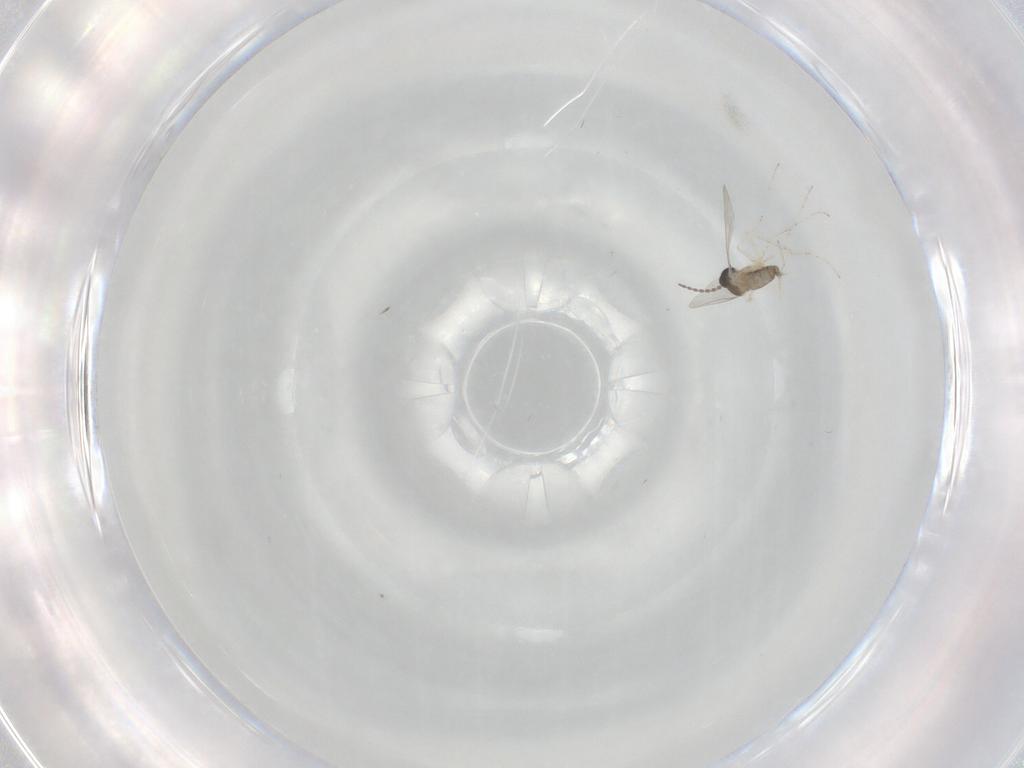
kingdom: Animalia
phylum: Arthropoda
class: Insecta
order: Diptera
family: Cecidomyiidae
